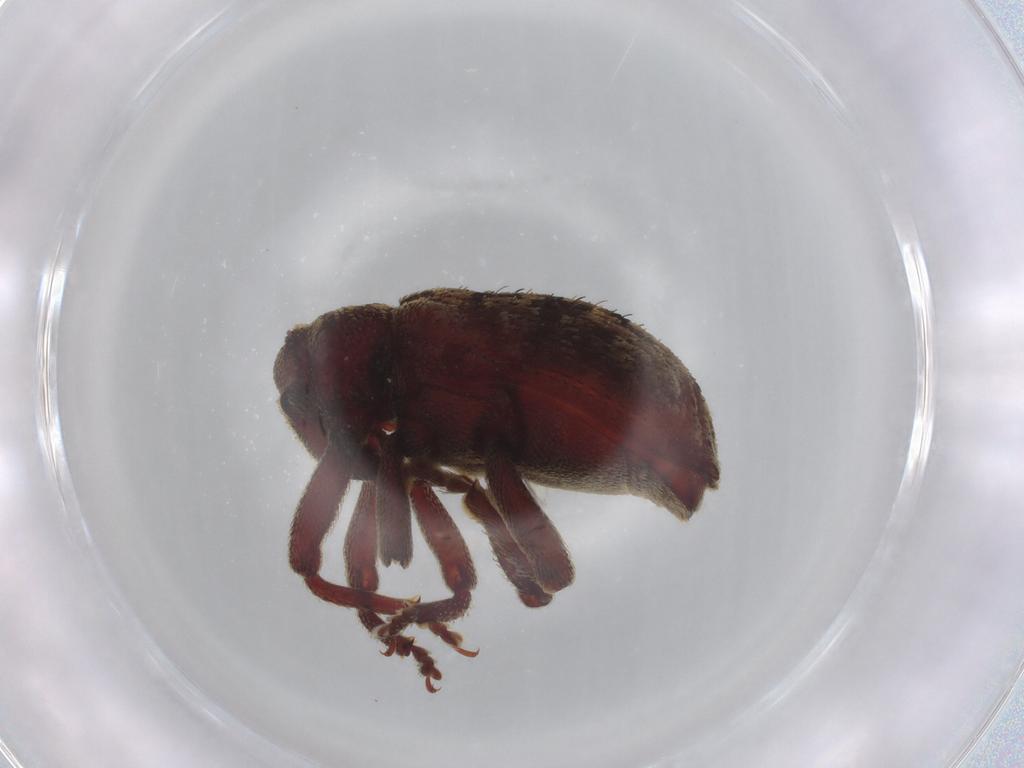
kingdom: Animalia
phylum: Arthropoda
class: Insecta
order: Coleoptera
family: Curculionidae
